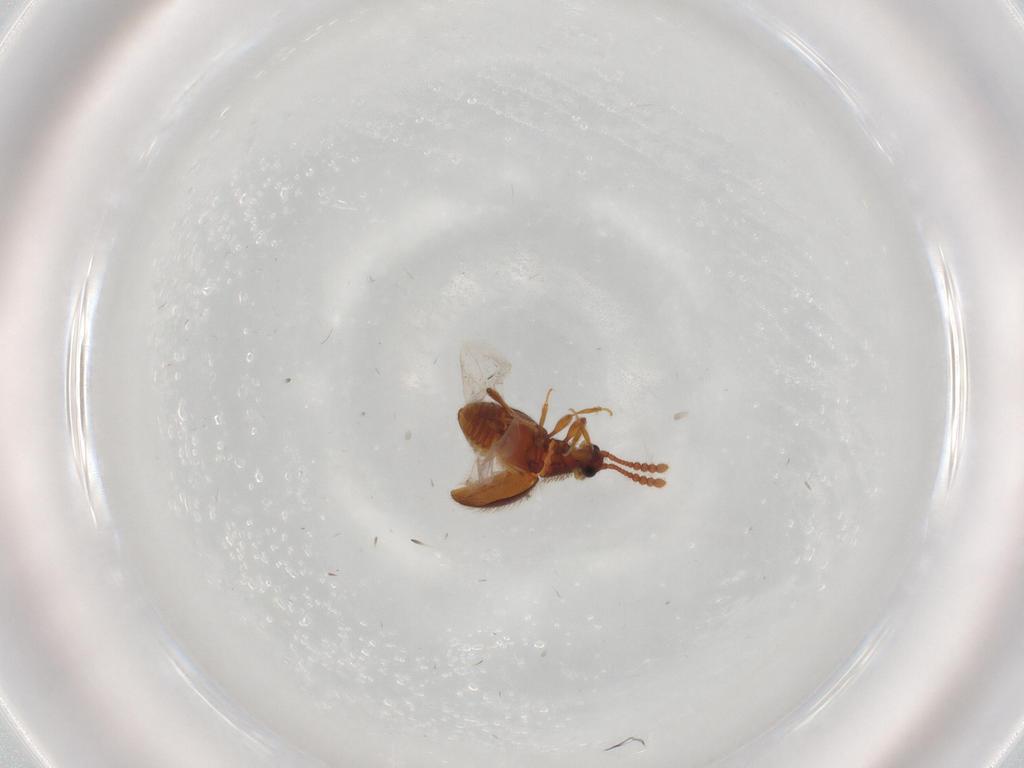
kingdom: Animalia
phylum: Arthropoda
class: Insecta
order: Coleoptera
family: Staphylinidae
